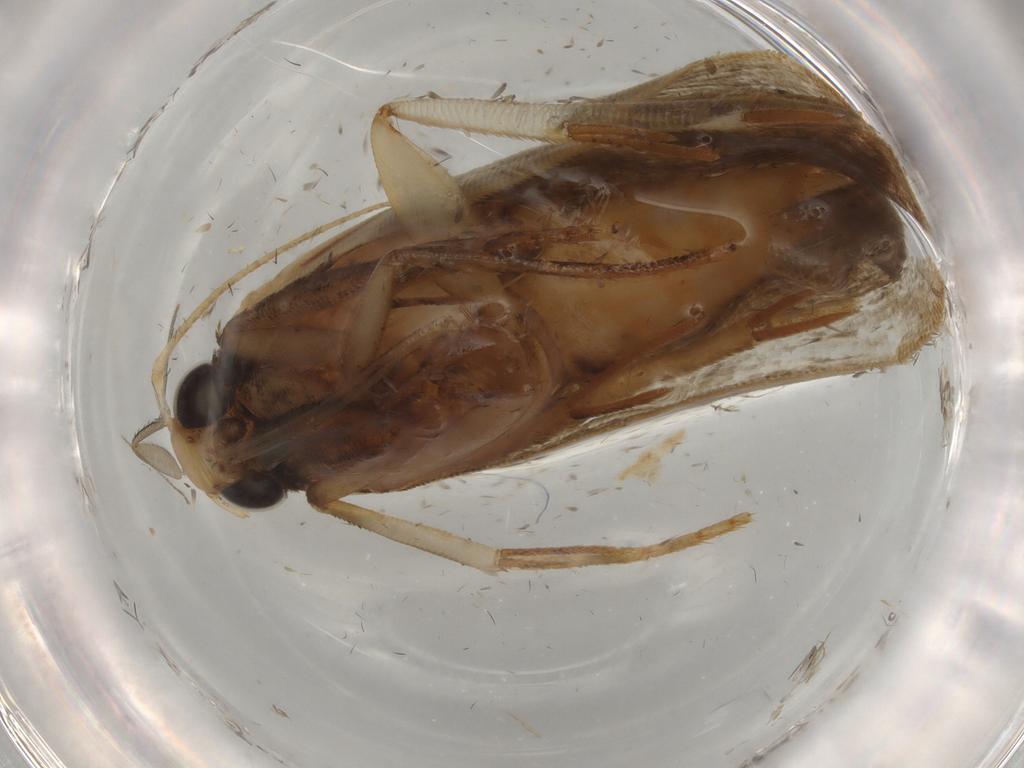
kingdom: Animalia
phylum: Arthropoda
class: Insecta
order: Lepidoptera
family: Gelechiidae
